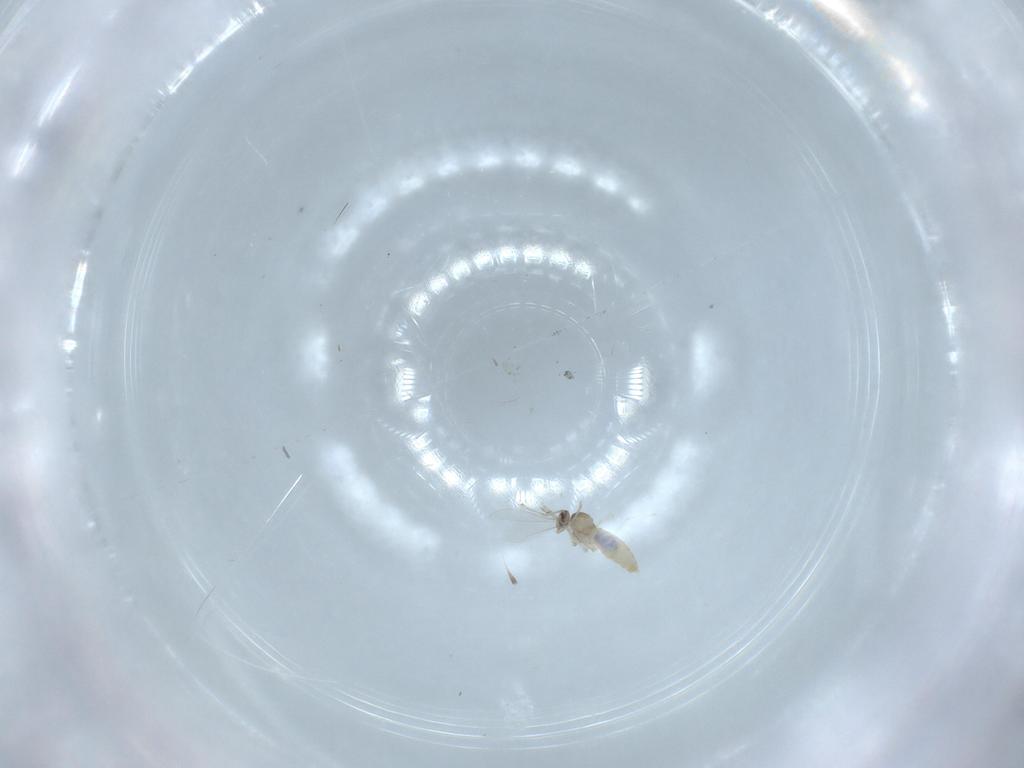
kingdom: Animalia
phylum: Arthropoda
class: Insecta
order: Diptera
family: Cecidomyiidae
